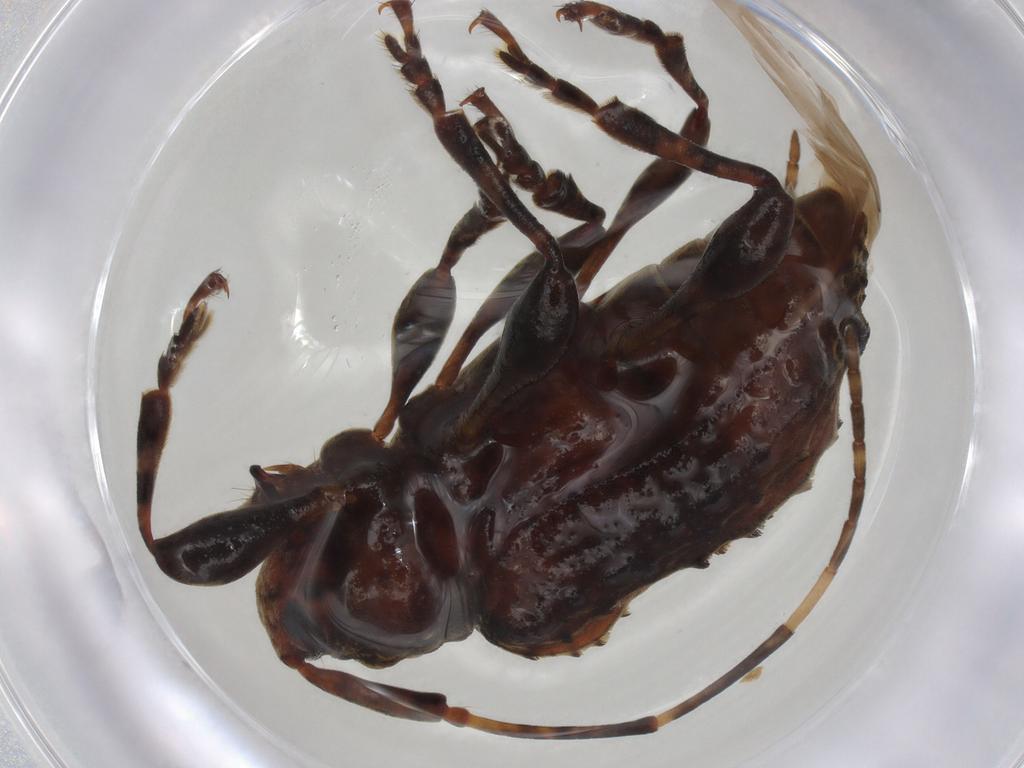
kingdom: Animalia
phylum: Arthropoda
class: Insecta
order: Coleoptera
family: Cerambycidae
